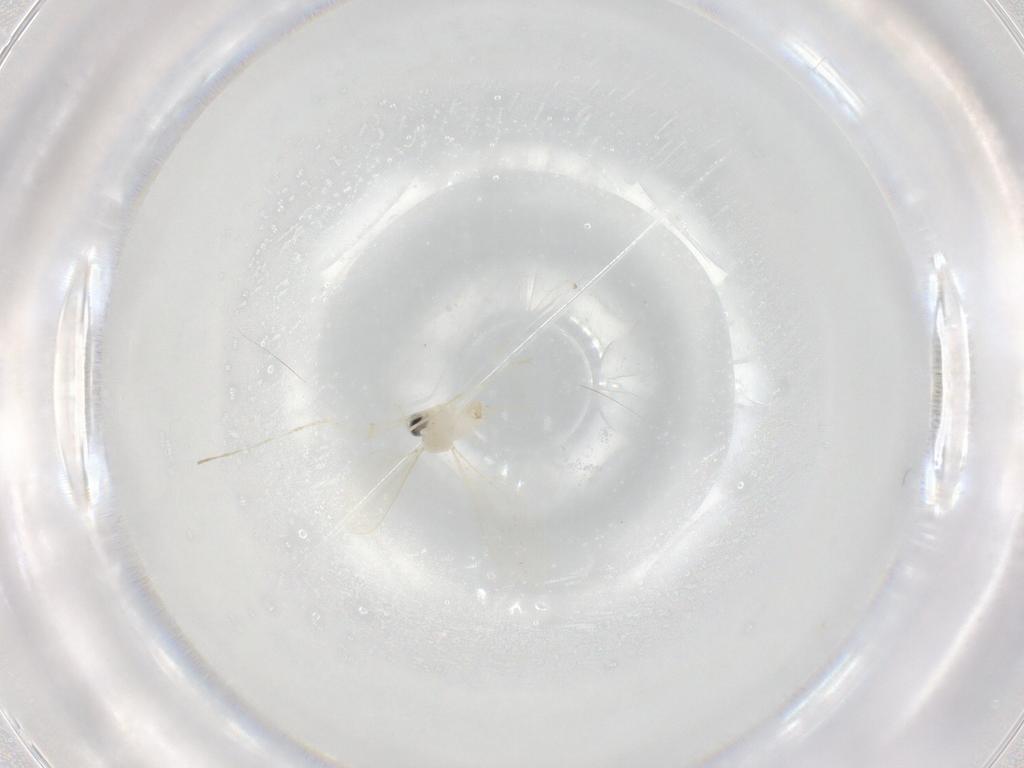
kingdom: Animalia
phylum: Arthropoda
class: Insecta
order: Diptera
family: Cecidomyiidae
